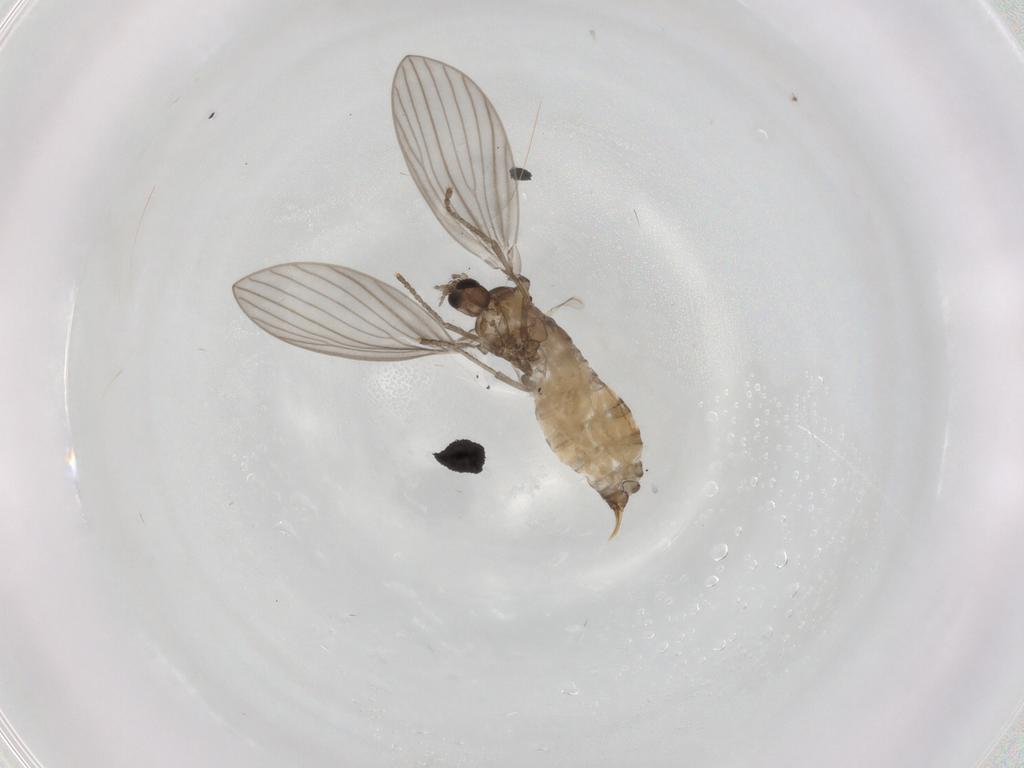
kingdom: Animalia
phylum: Arthropoda
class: Insecta
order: Diptera
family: Psychodidae
